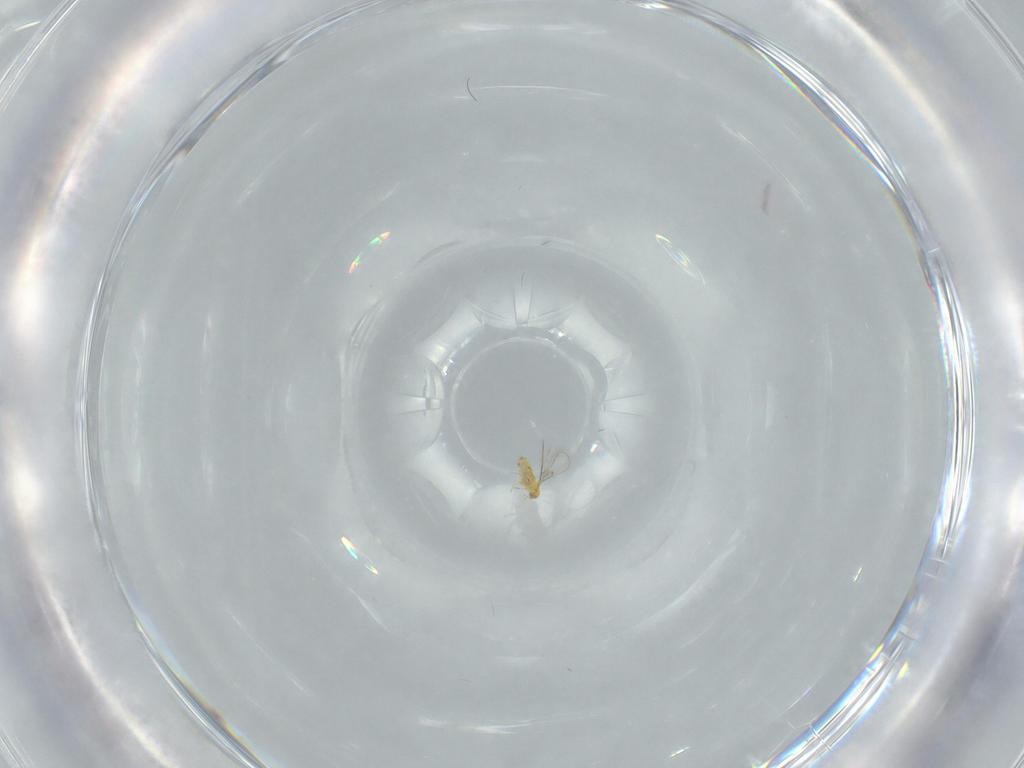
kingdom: Animalia
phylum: Arthropoda
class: Insecta
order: Hymenoptera
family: Trichogrammatidae
